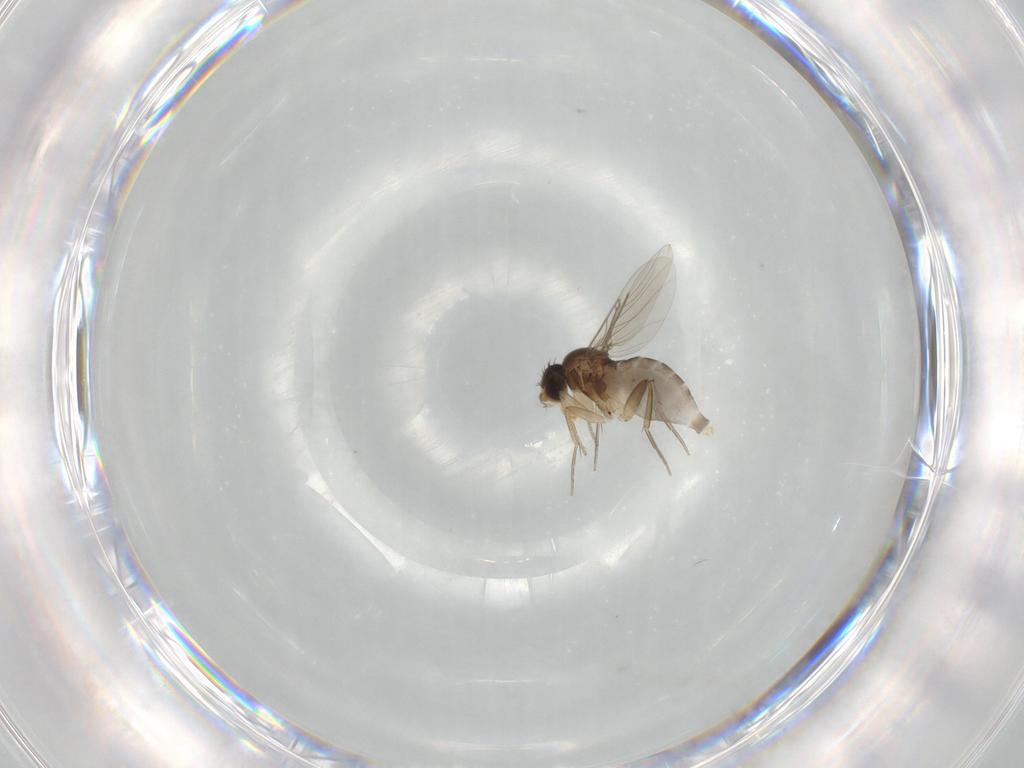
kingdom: Animalia
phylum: Arthropoda
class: Insecta
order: Diptera
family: Phoridae
